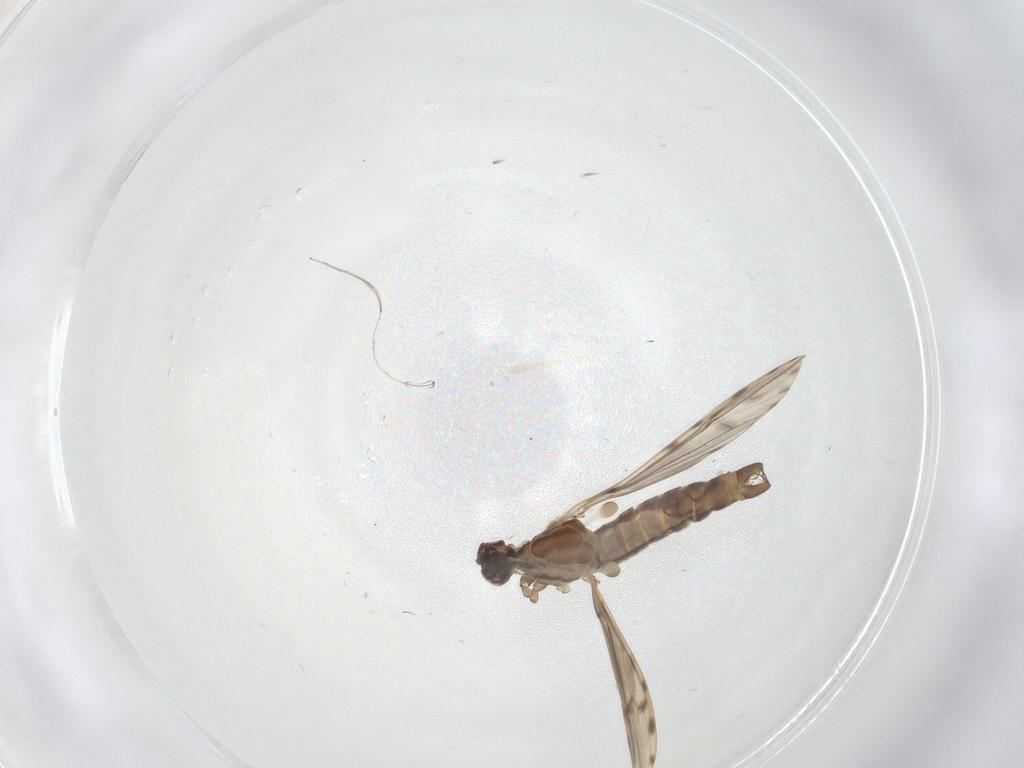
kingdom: Animalia
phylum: Arthropoda
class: Insecta
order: Diptera
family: Limoniidae
